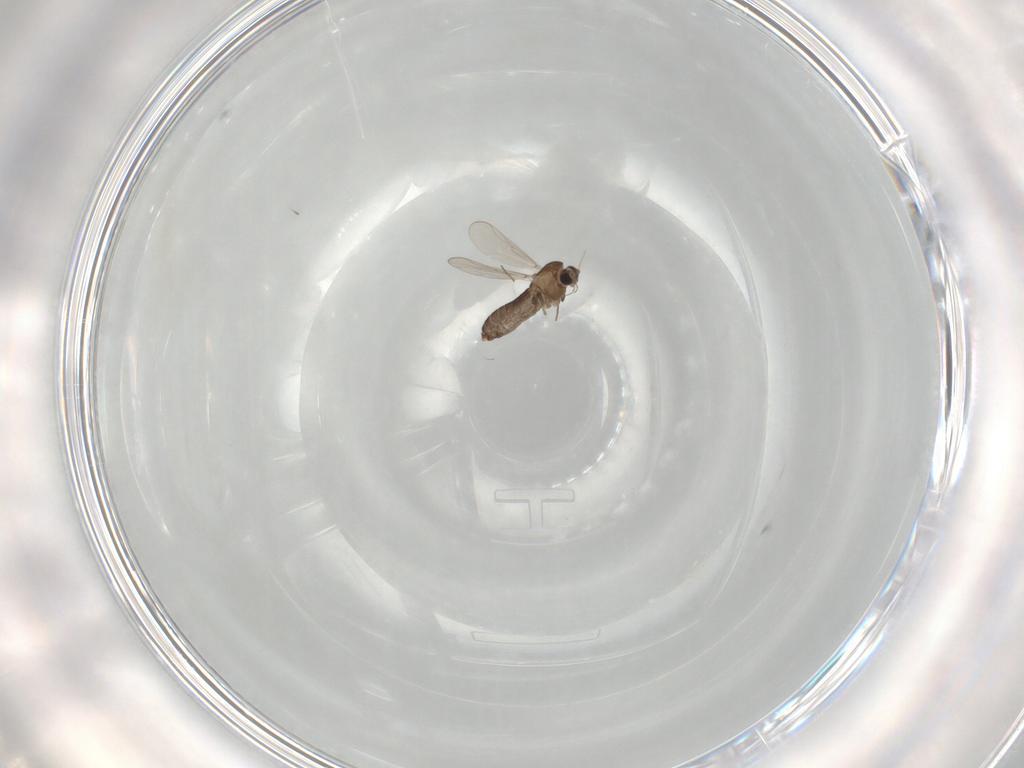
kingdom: Animalia
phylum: Arthropoda
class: Insecta
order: Diptera
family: Chironomidae
